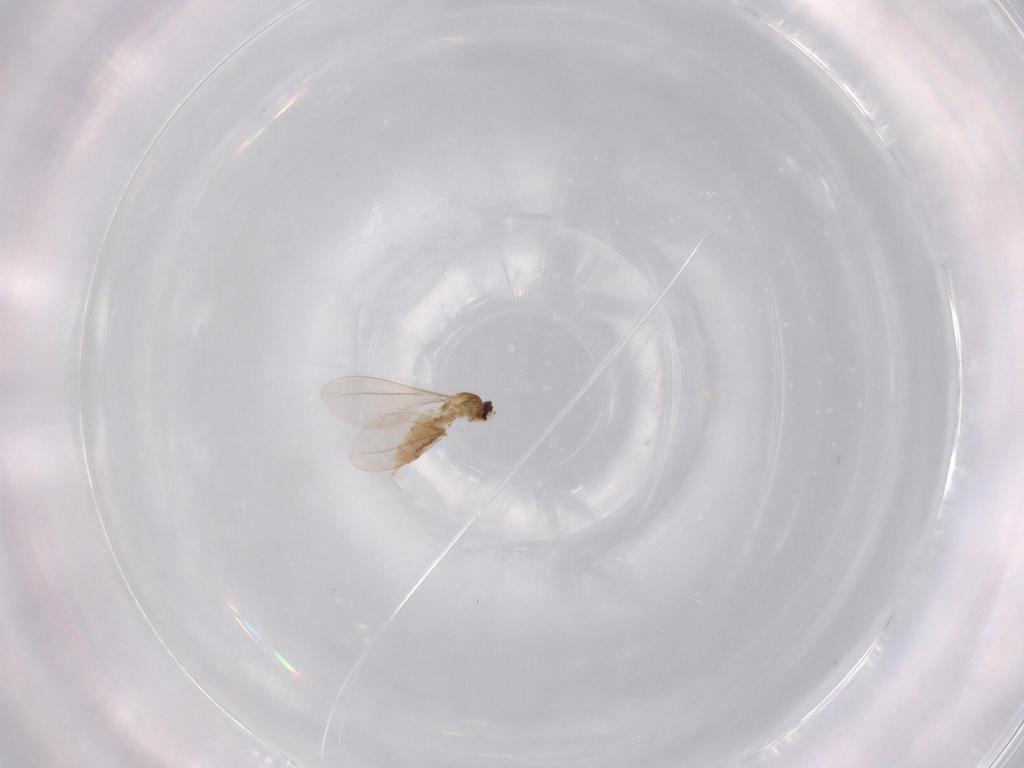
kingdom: Animalia
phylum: Arthropoda
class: Insecta
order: Diptera
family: Cecidomyiidae
